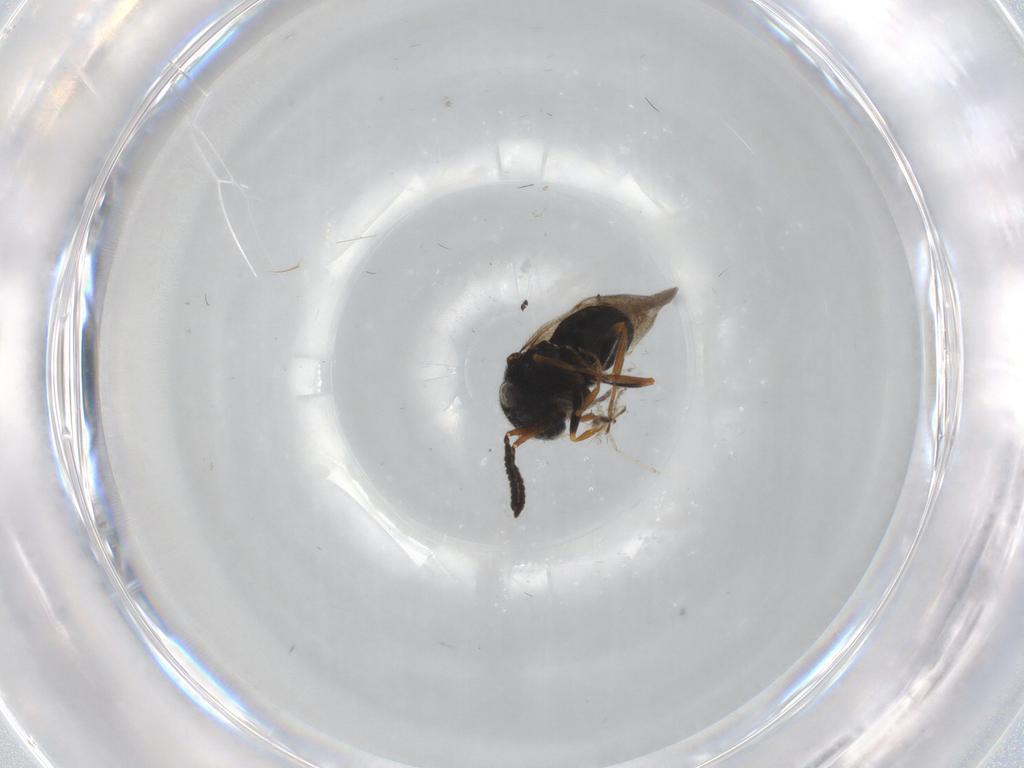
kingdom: Animalia
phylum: Arthropoda
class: Insecta
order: Hymenoptera
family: Scelionidae
